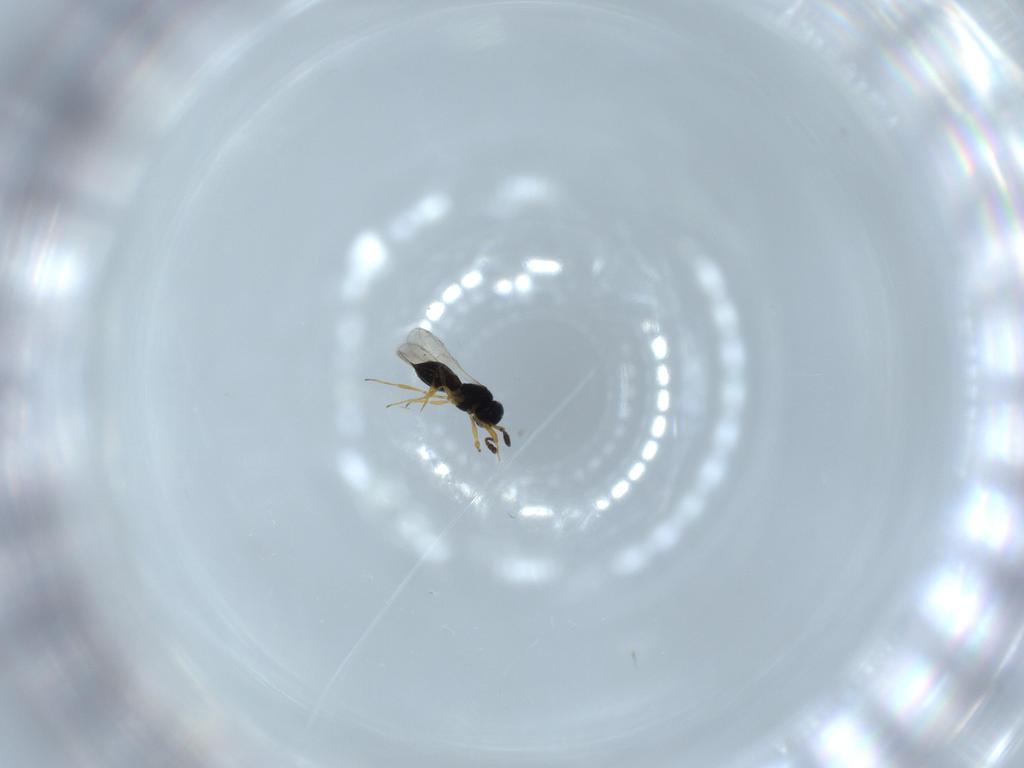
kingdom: Animalia
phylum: Arthropoda
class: Insecta
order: Hymenoptera
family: Scelionidae
